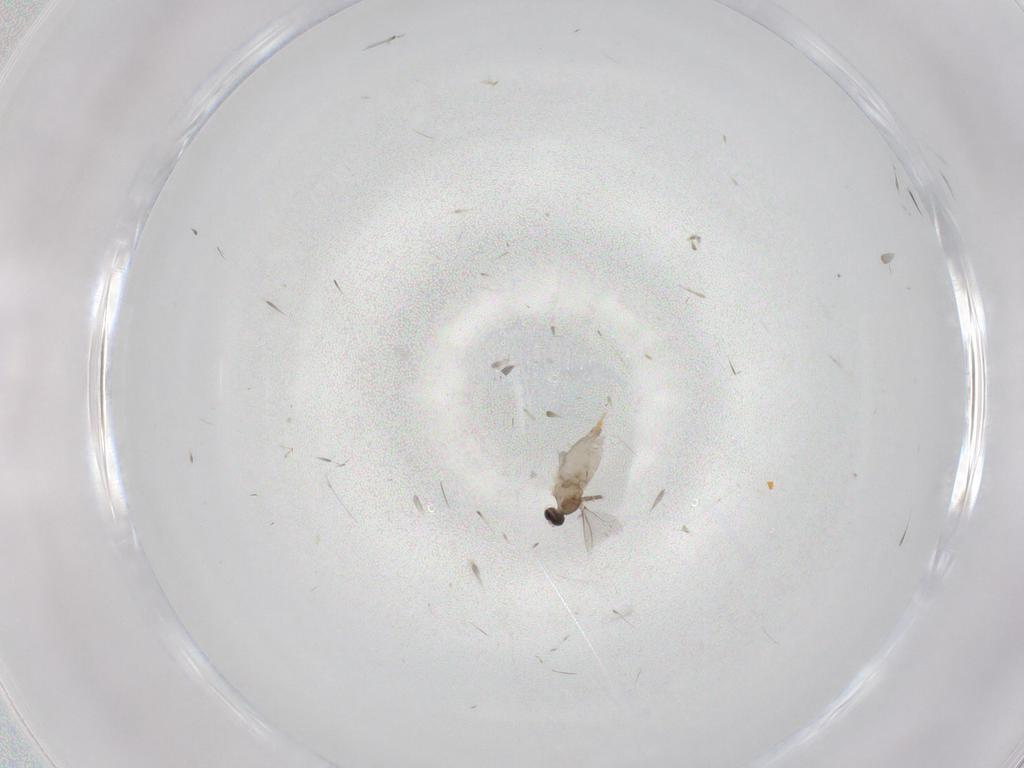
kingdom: Animalia
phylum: Arthropoda
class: Insecta
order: Diptera
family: Cecidomyiidae
